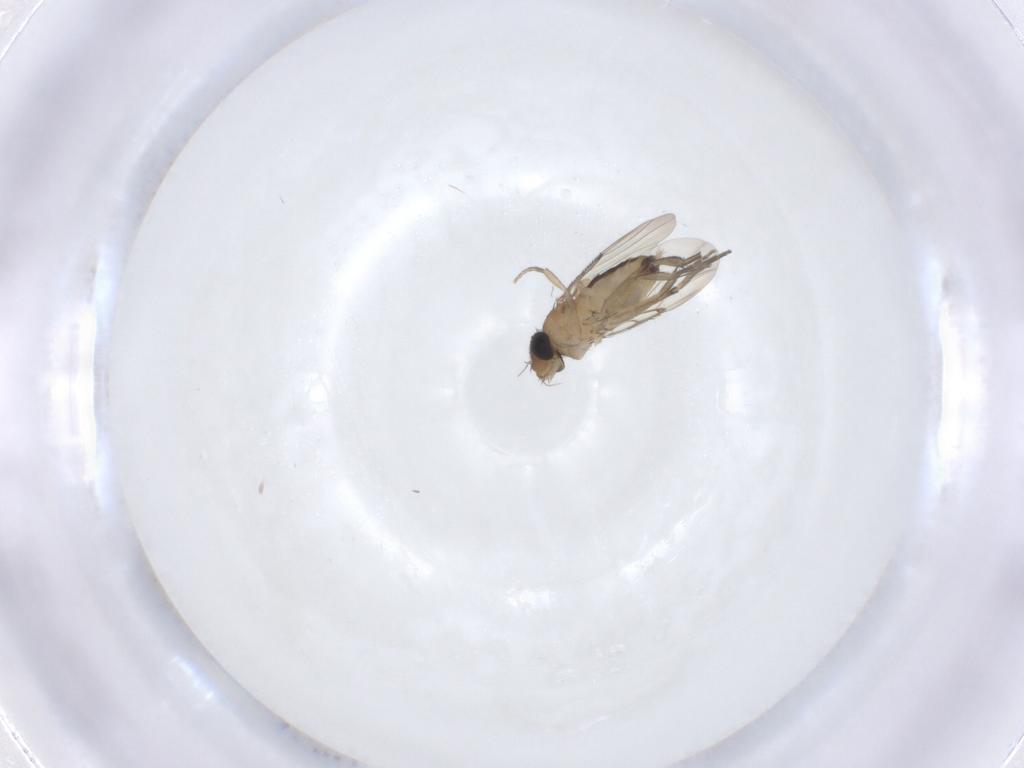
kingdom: Animalia
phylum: Arthropoda
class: Insecta
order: Diptera
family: Phoridae
